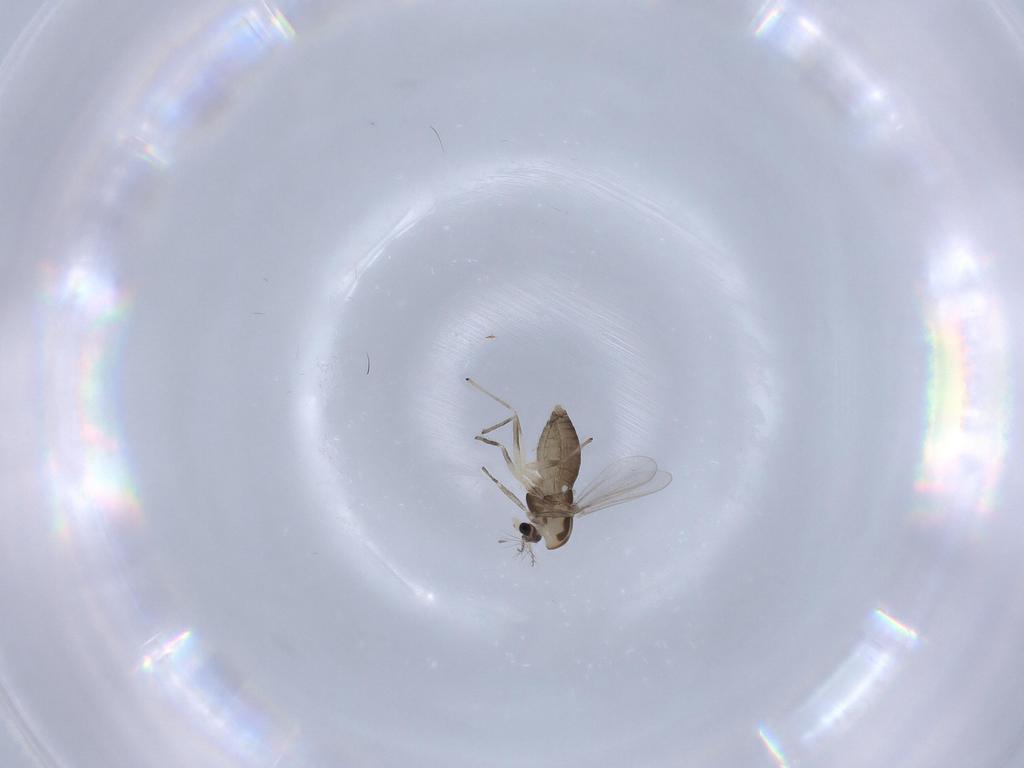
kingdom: Animalia
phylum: Arthropoda
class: Insecta
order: Diptera
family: Chironomidae
